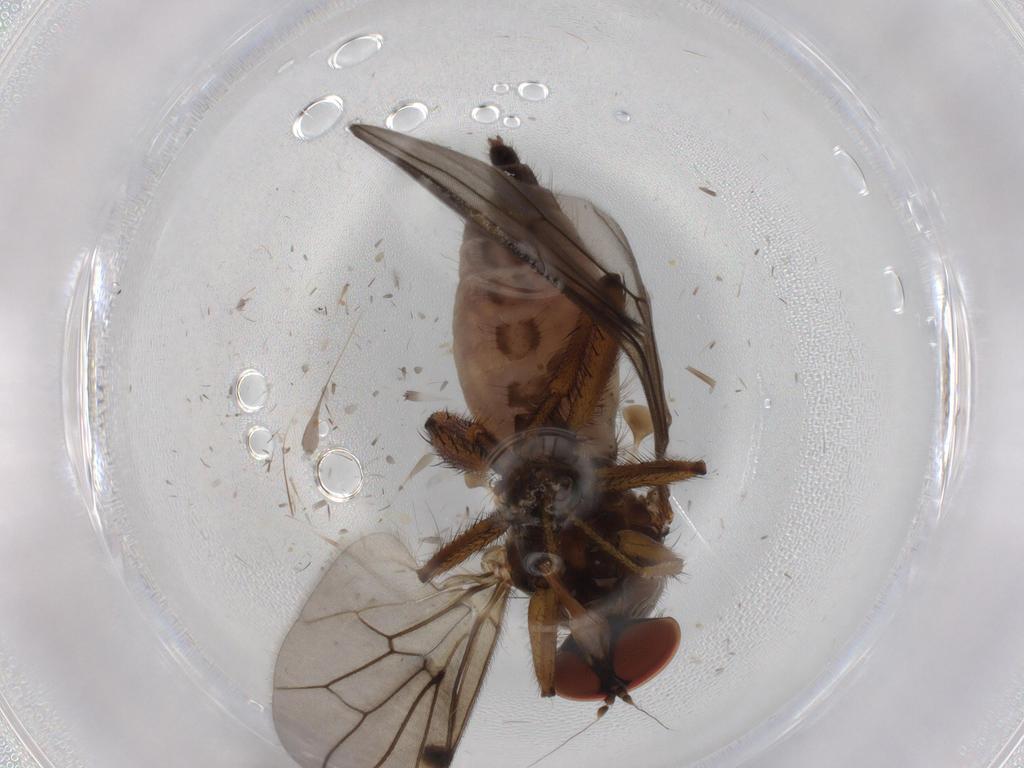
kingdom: Animalia
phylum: Arthropoda
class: Insecta
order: Diptera
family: Hybotidae
